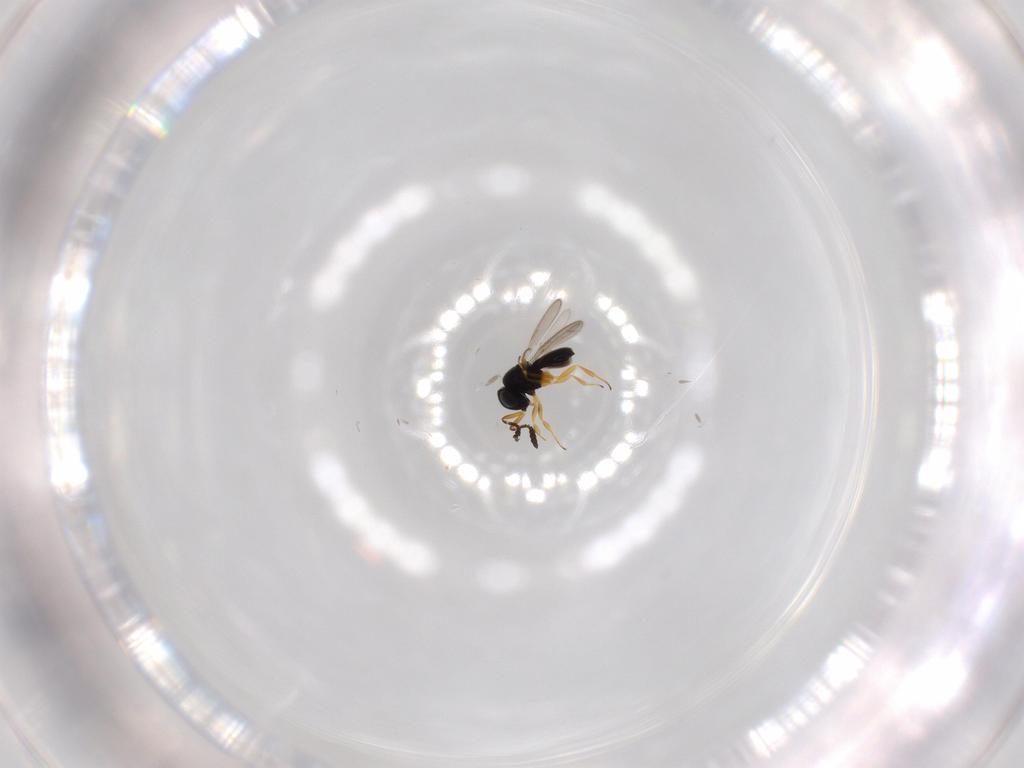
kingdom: Animalia
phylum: Arthropoda
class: Insecta
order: Hymenoptera
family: Scelionidae
